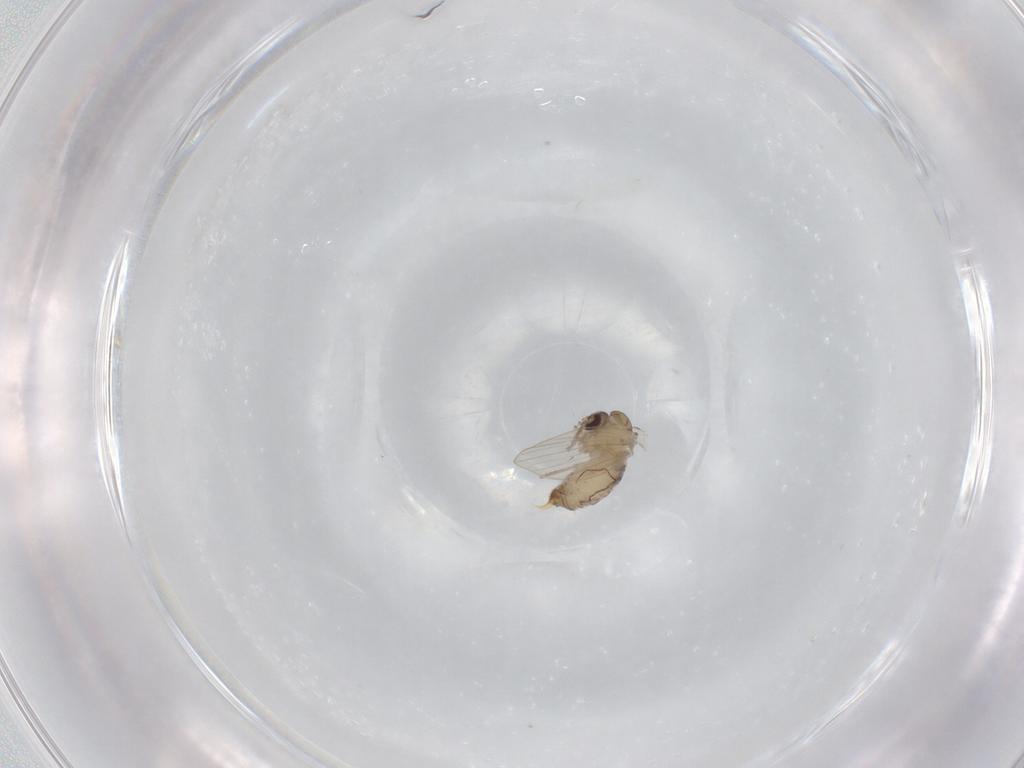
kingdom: Animalia
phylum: Arthropoda
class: Insecta
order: Diptera
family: Psychodidae
